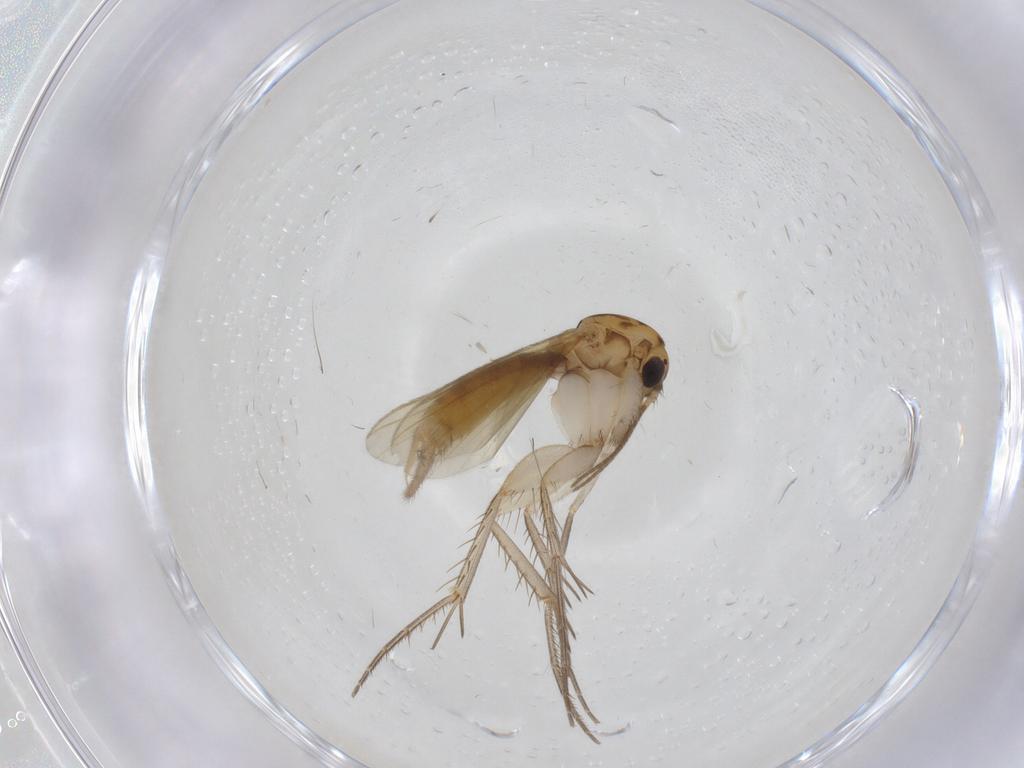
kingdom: Animalia
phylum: Arthropoda
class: Insecta
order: Diptera
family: Mycetophilidae
